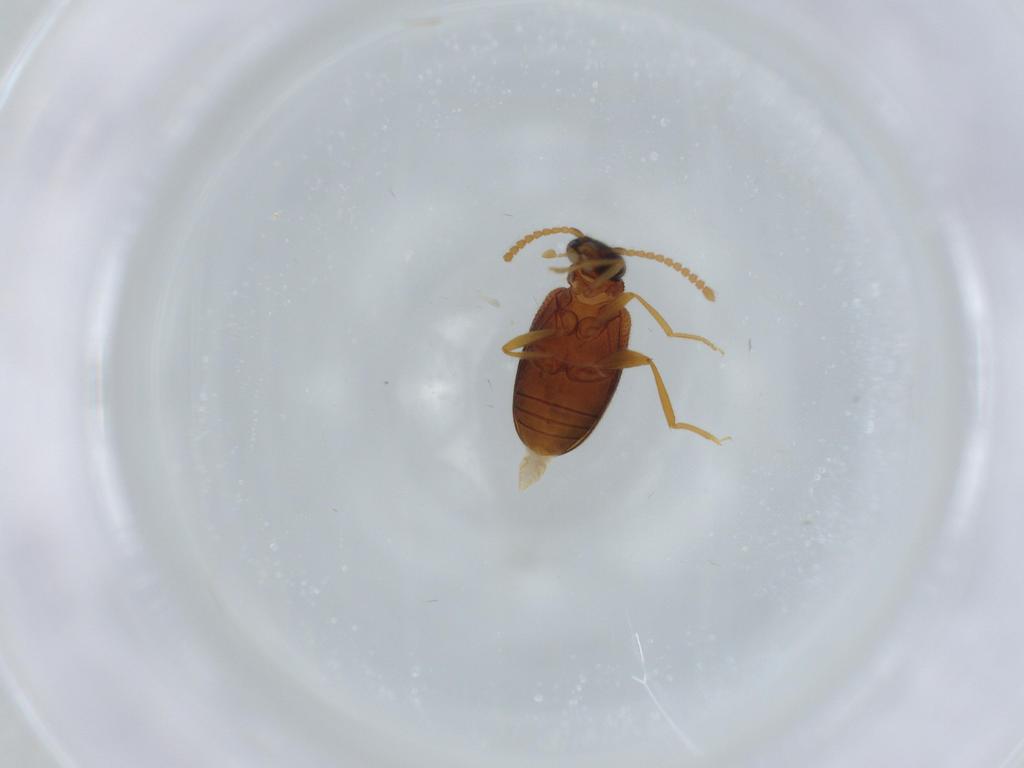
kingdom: Animalia
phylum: Arthropoda
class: Insecta
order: Coleoptera
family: Aderidae
